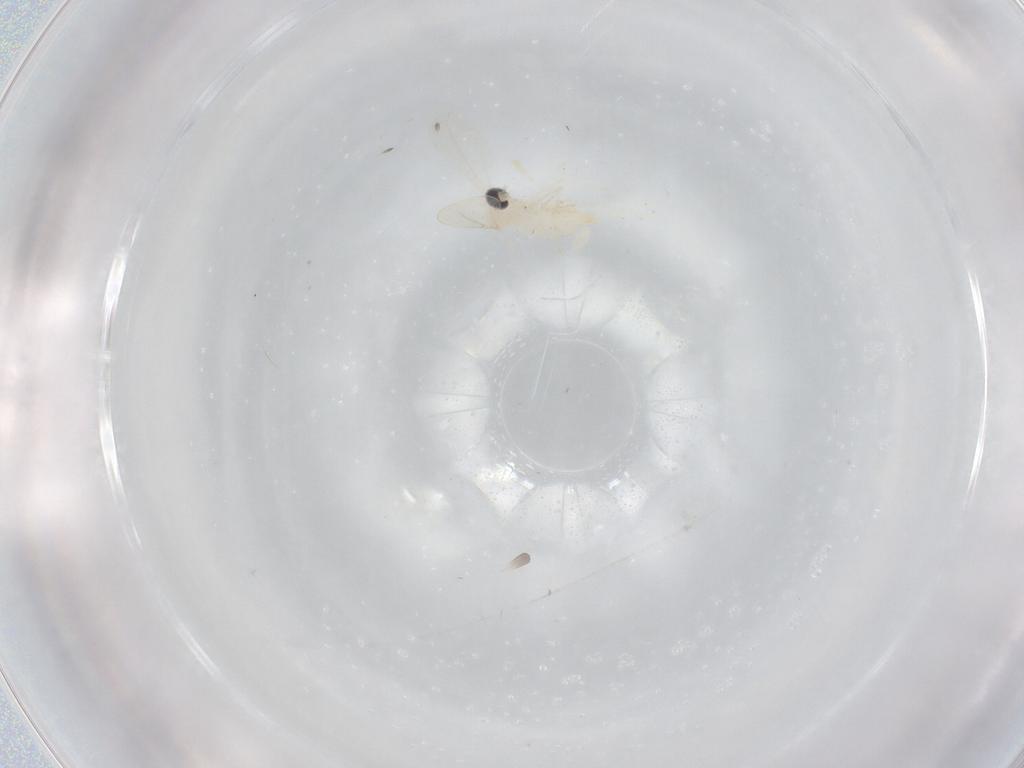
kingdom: Animalia
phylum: Arthropoda
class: Insecta
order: Diptera
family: Cecidomyiidae
